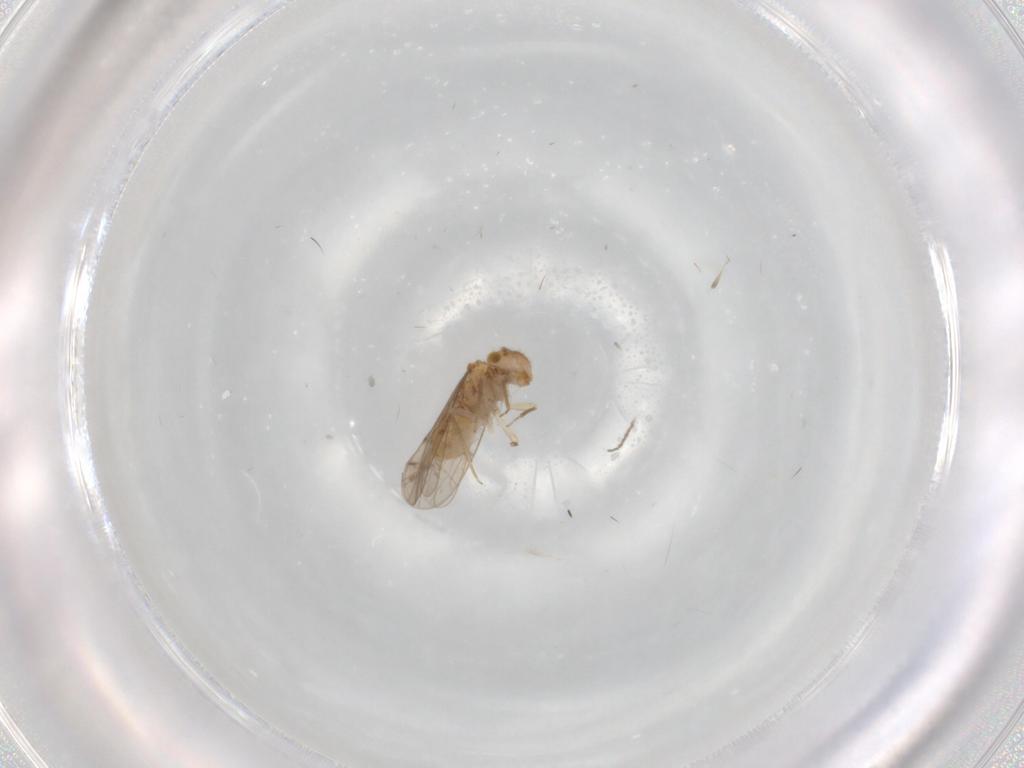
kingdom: Animalia
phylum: Arthropoda
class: Insecta
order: Psocodea
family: Ectopsocidae
